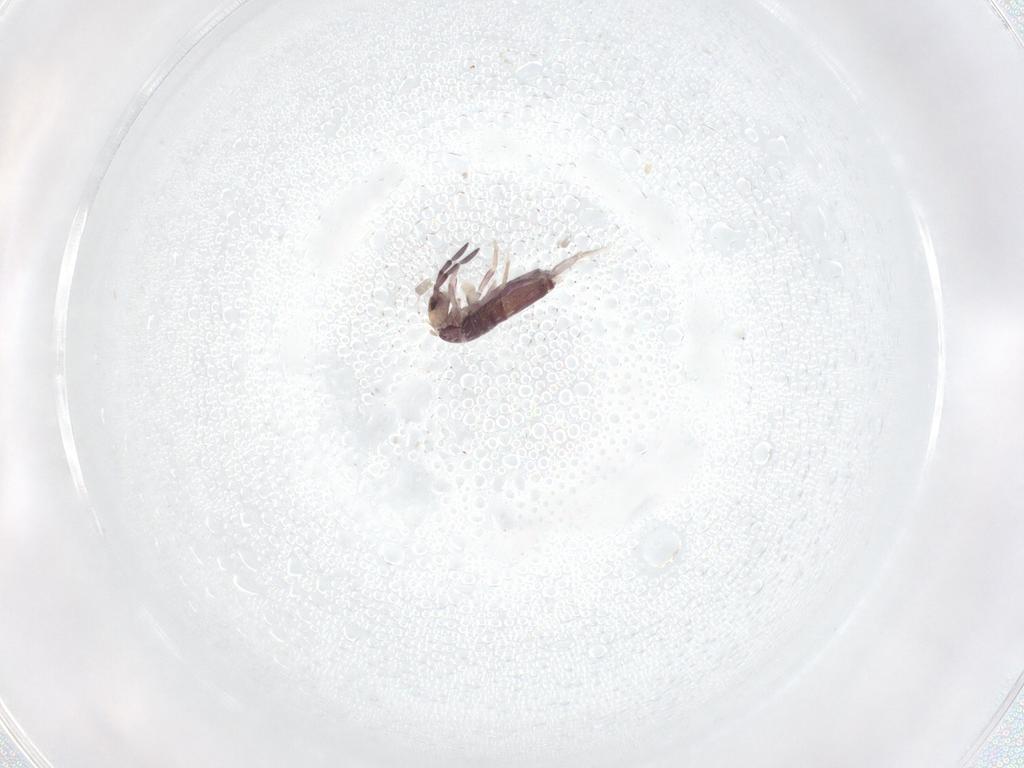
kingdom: Animalia
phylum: Arthropoda
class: Collembola
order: Entomobryomorpha
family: Entomobryidae
